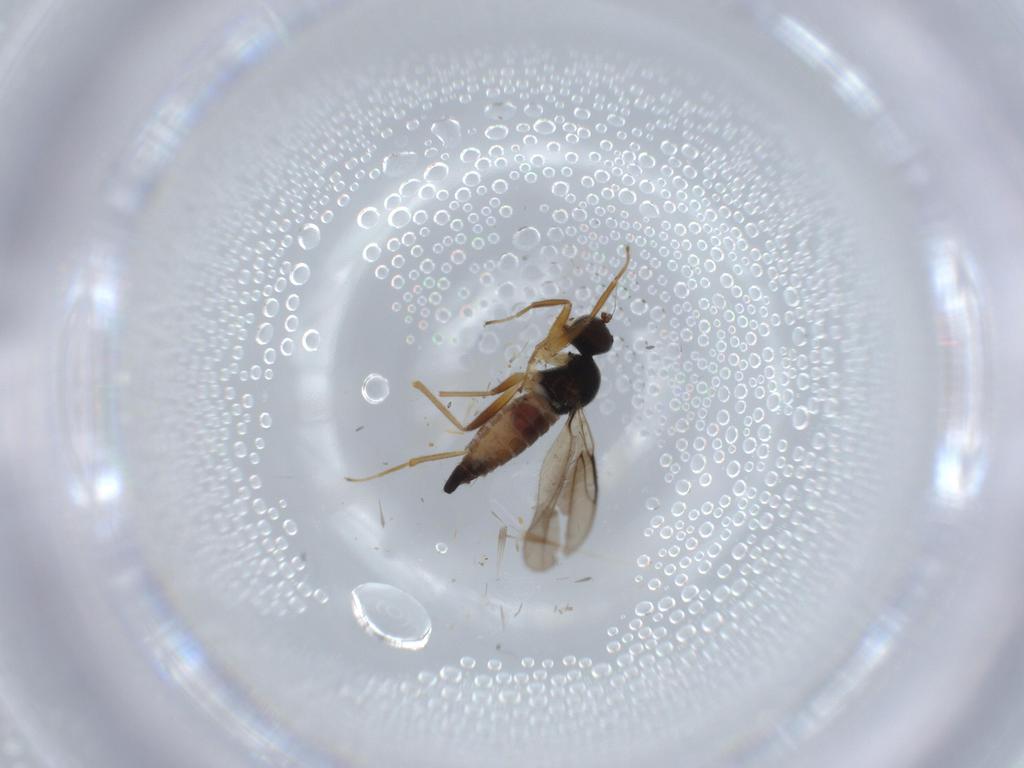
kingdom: Animalia
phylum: Arthropoda
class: Insecta
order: Diptera
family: Hybotidae
